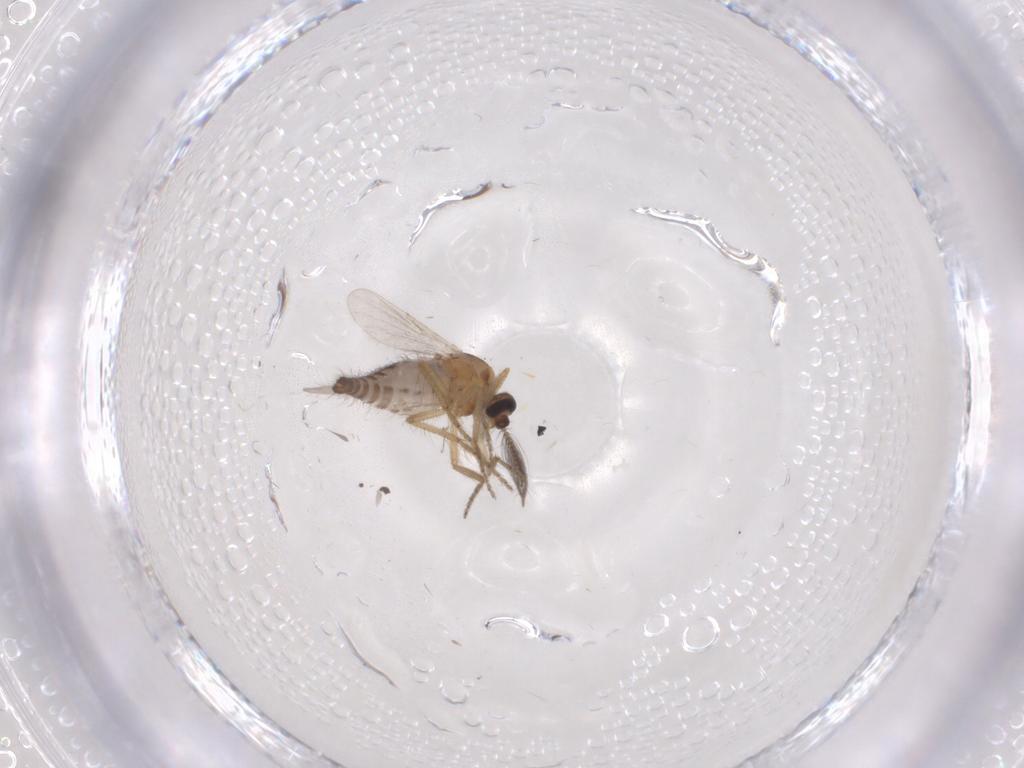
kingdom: Animalia
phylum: Arthropoda
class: Insecta
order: Diptera
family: Ceratopogonidae
